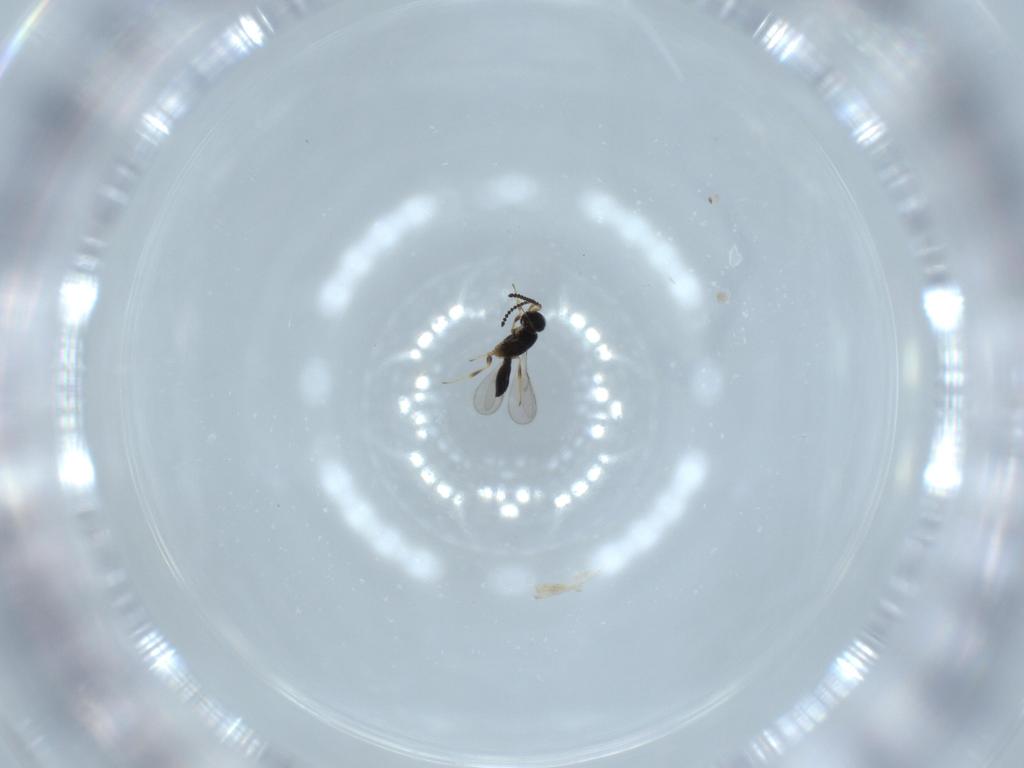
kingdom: Animalia
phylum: Arthropoda
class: Insecta
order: Hymenoptera
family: Scelionidae
